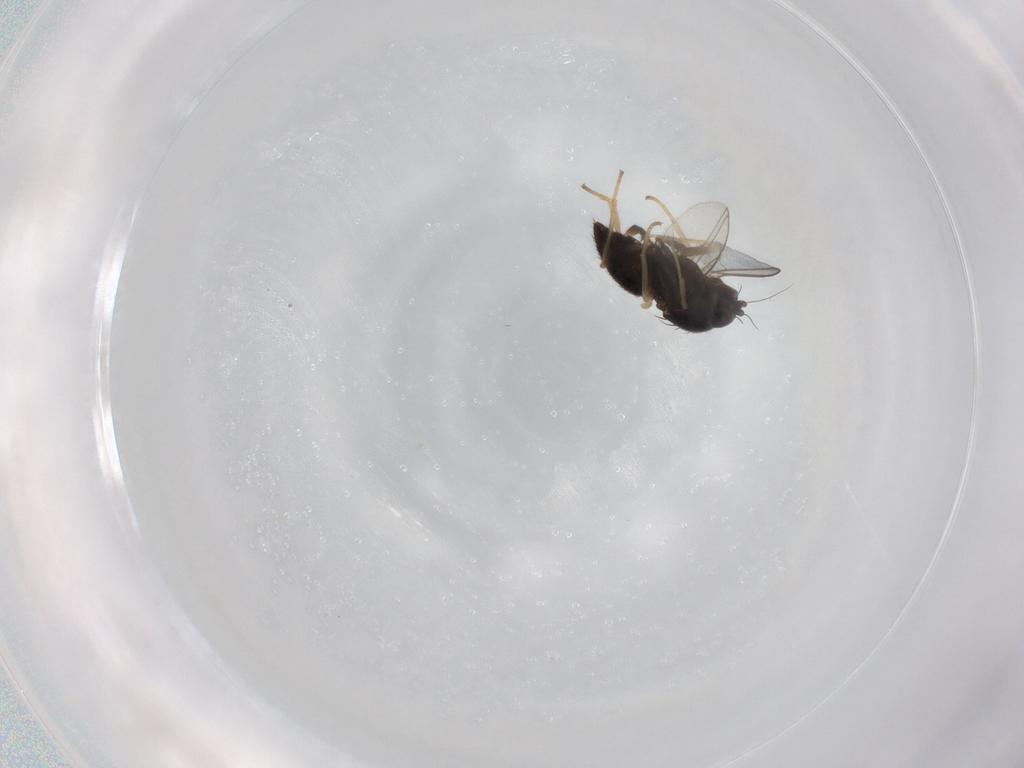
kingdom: Animalia
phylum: Arthropoda
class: Insecta
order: Diptera
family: Dolichopodidae
